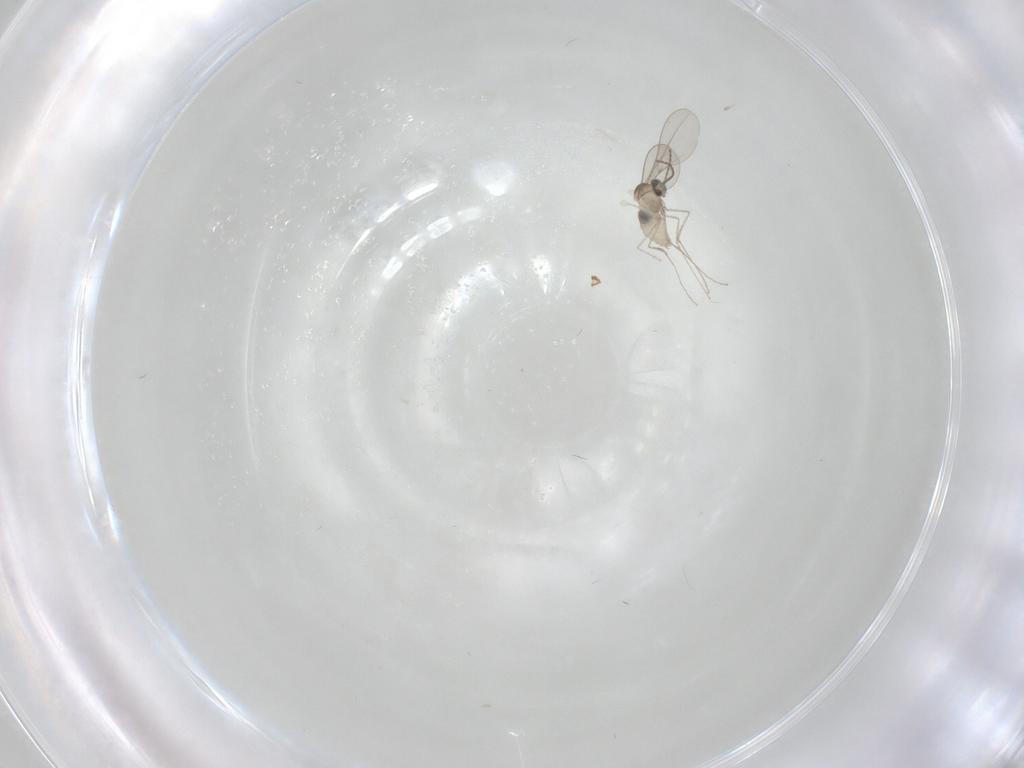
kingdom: Animalia
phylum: Arthropoda
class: Insecta
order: Diptera
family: Cecidomyiidae
